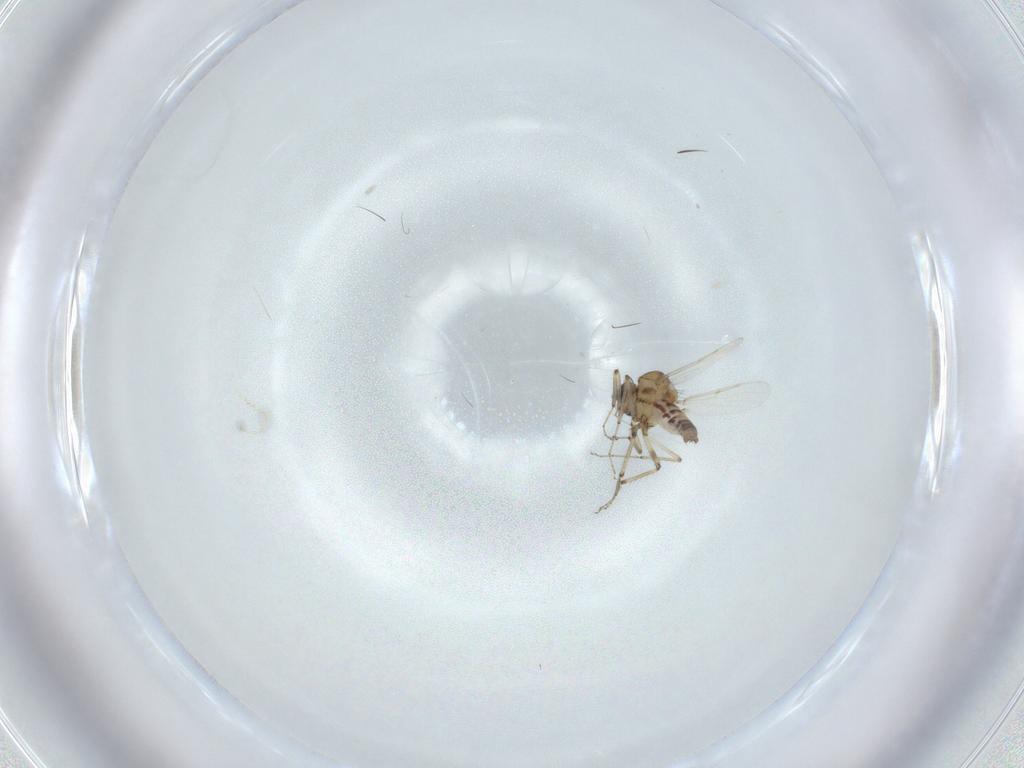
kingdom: Animalia
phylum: Arthropoda
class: Insecta
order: Diptera
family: Ceratopogonidae
